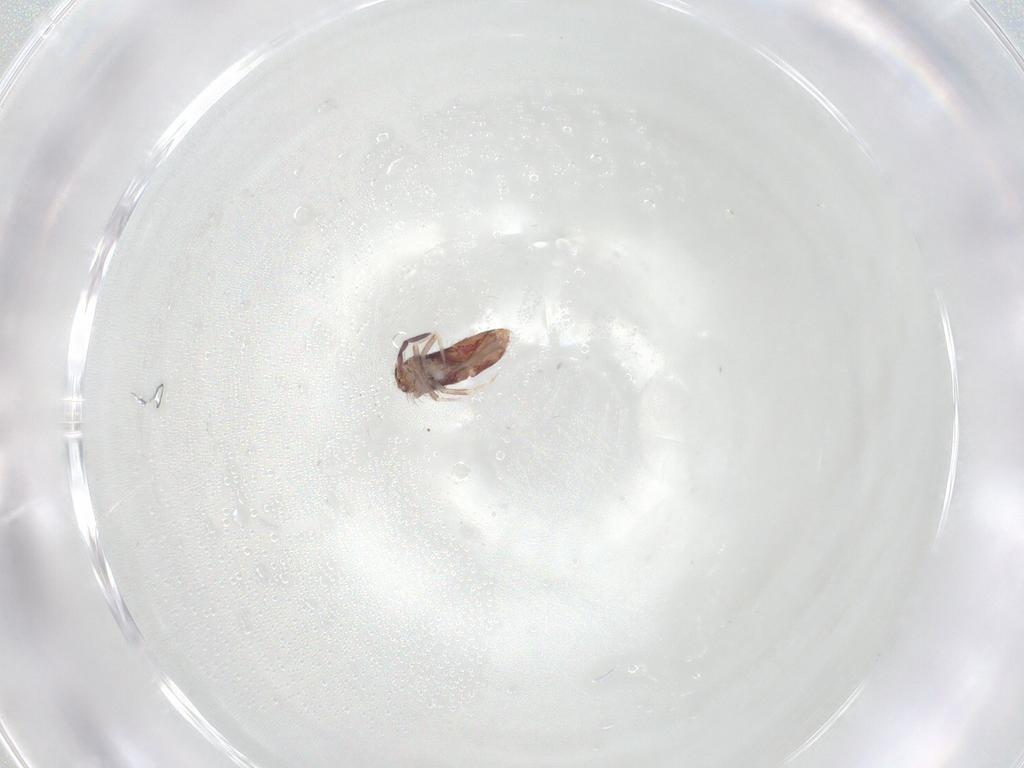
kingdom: Animalia
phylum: Arthropoda
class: Collembola
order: Entomobryomorpha
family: Entomobryidae
